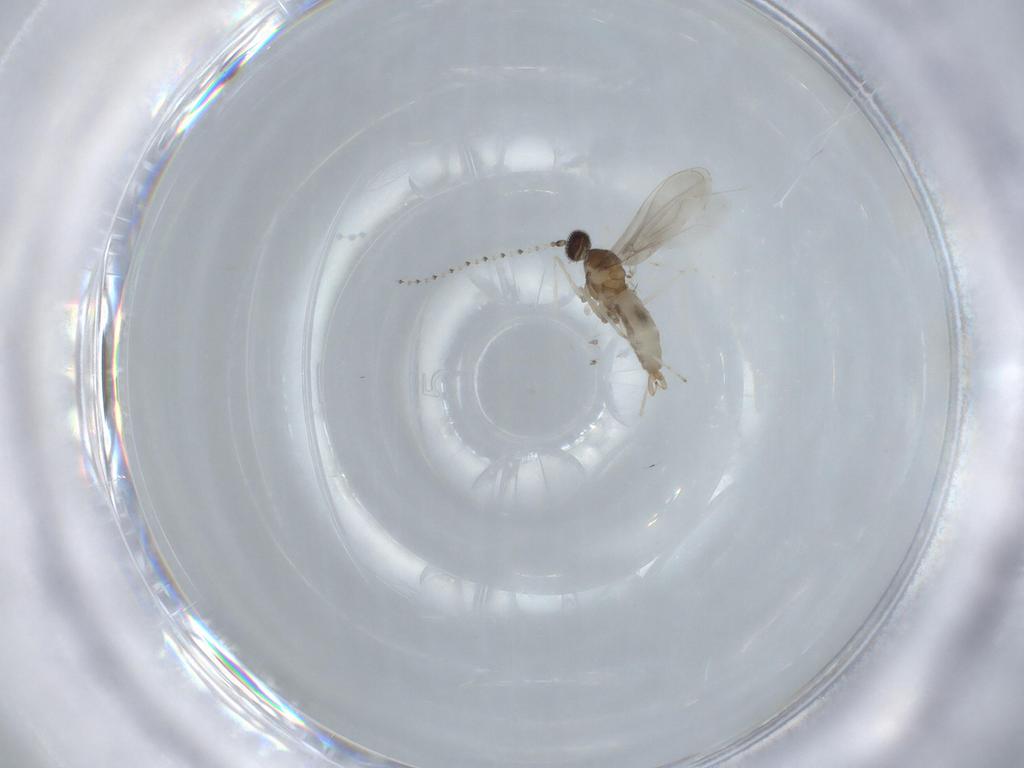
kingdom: Animalia
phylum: Arthropoda
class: Insecta
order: Diptera
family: Cecidomyiidae
